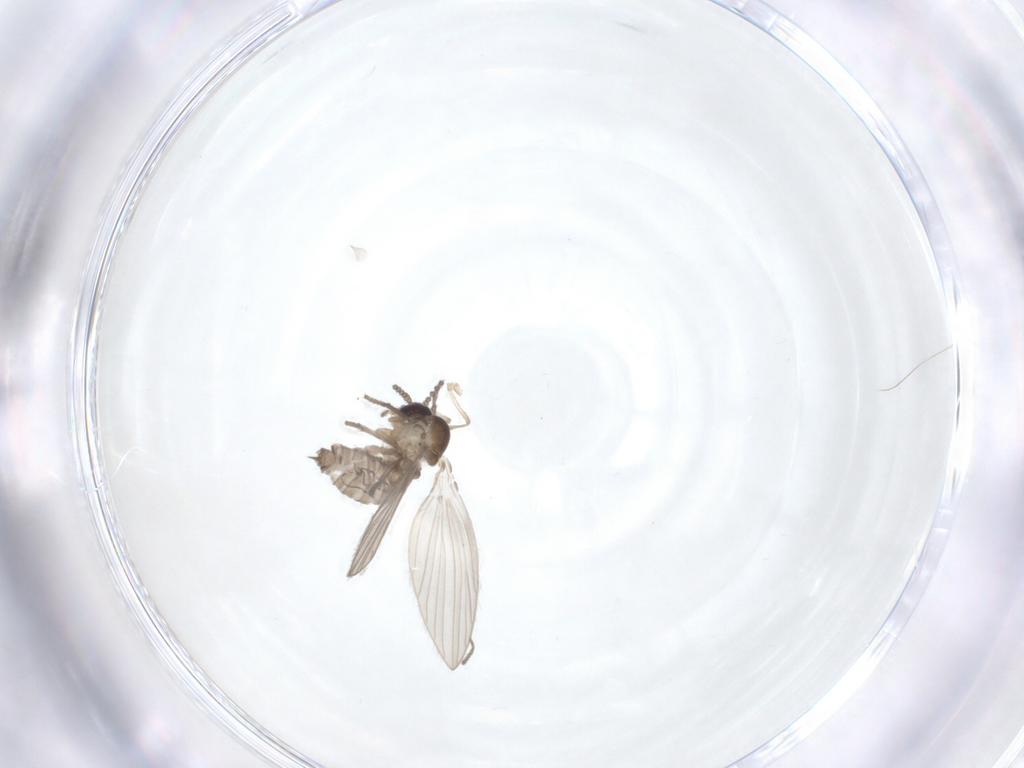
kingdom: Animalia
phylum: Arthropoda
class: Insecta
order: Diptera
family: Psychodidae
